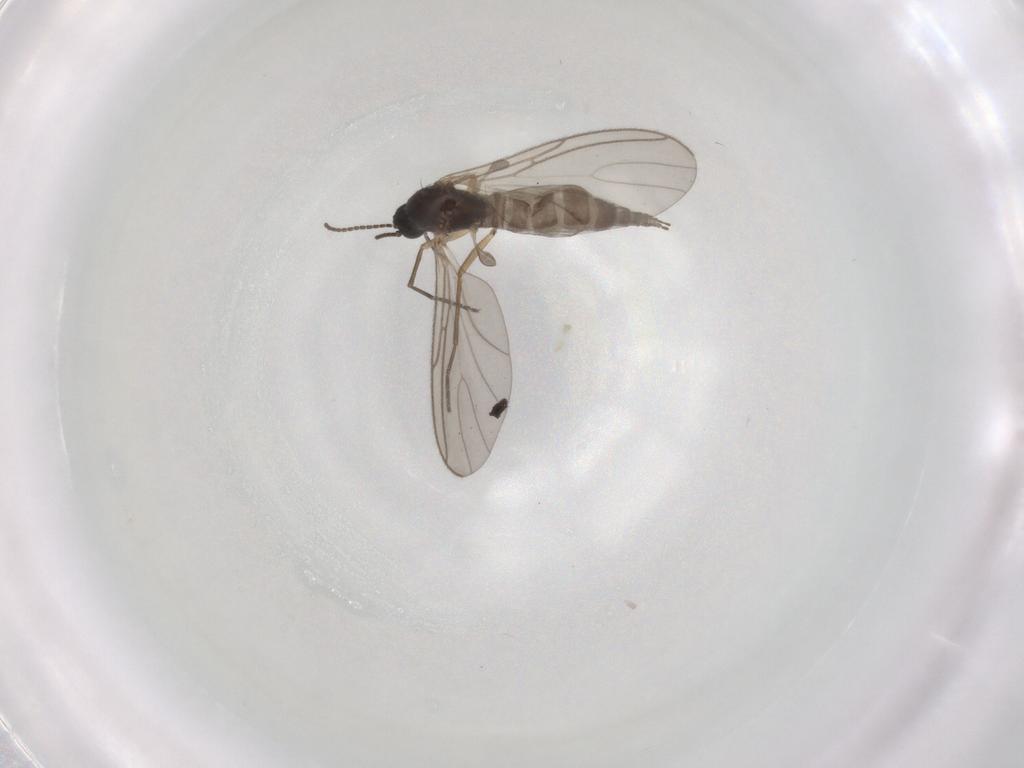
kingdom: Animalia
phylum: Arthropoda
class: Insecta
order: Diptera
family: Sciaridae
